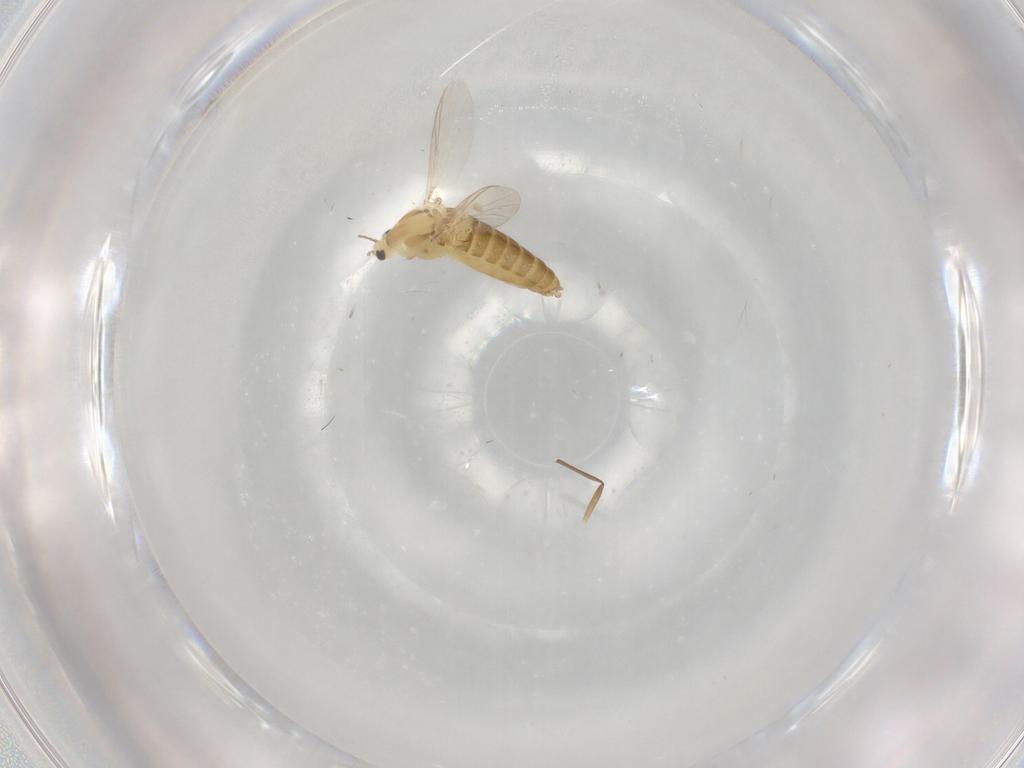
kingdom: Animalia
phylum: Arthropoda
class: Insecta
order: Diptera
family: Chironomidae
